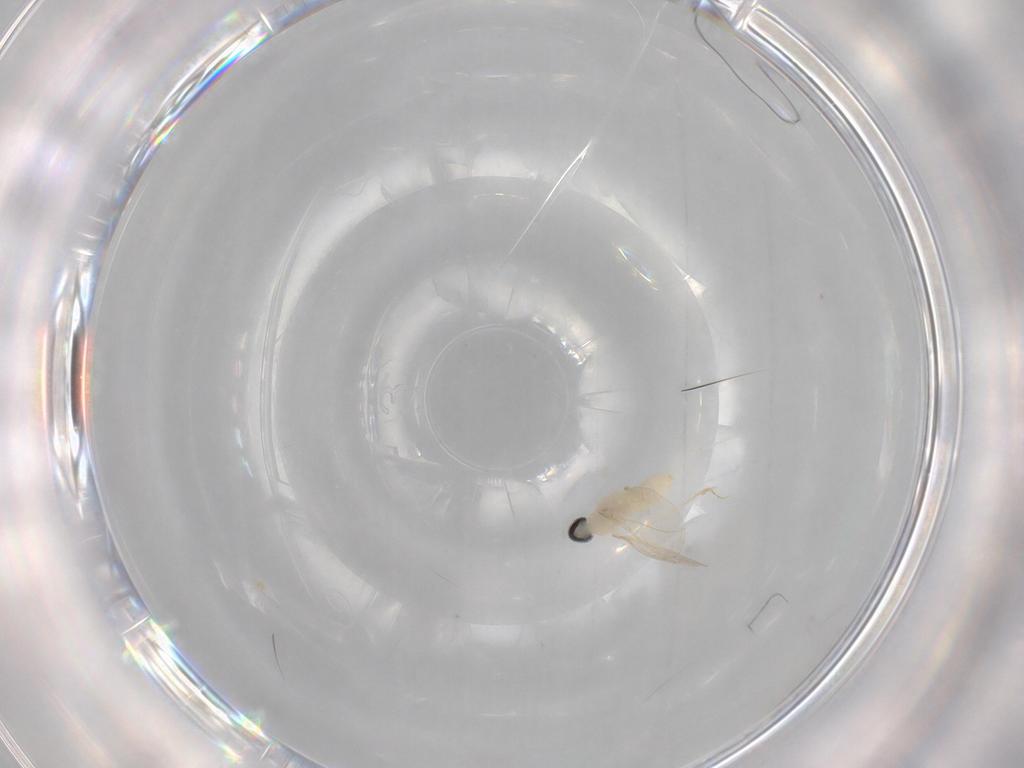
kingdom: Animalia
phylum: Arthropoda
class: Insecta
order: Diptera
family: Cecidomyiidae
